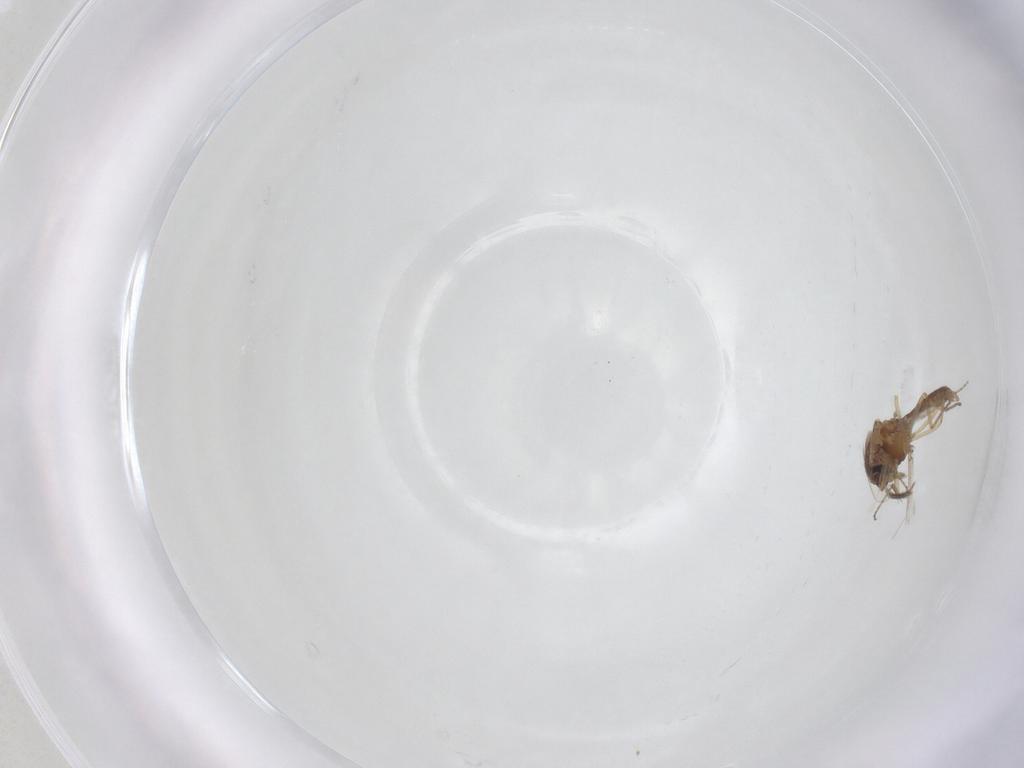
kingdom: Animalia
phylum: Arthropoda
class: Insecta
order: Diptera
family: Ceratopogonidae
